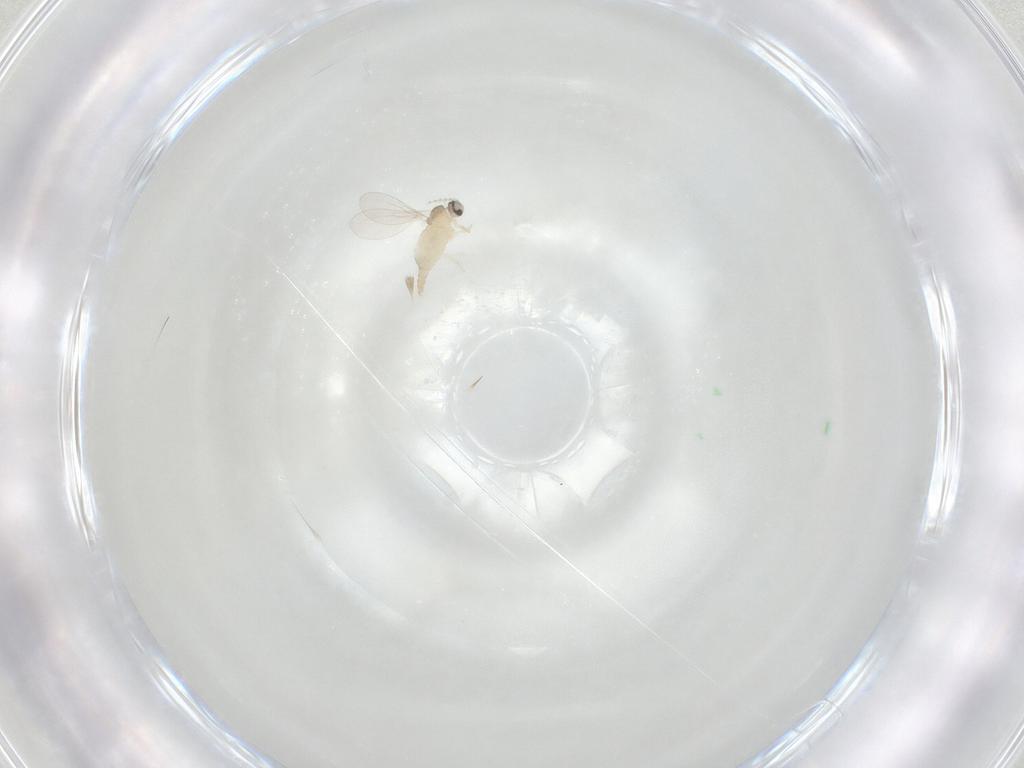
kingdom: Animalia
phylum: Arthropoda
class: Insecta
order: Diptera
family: Cecidomyiidae
